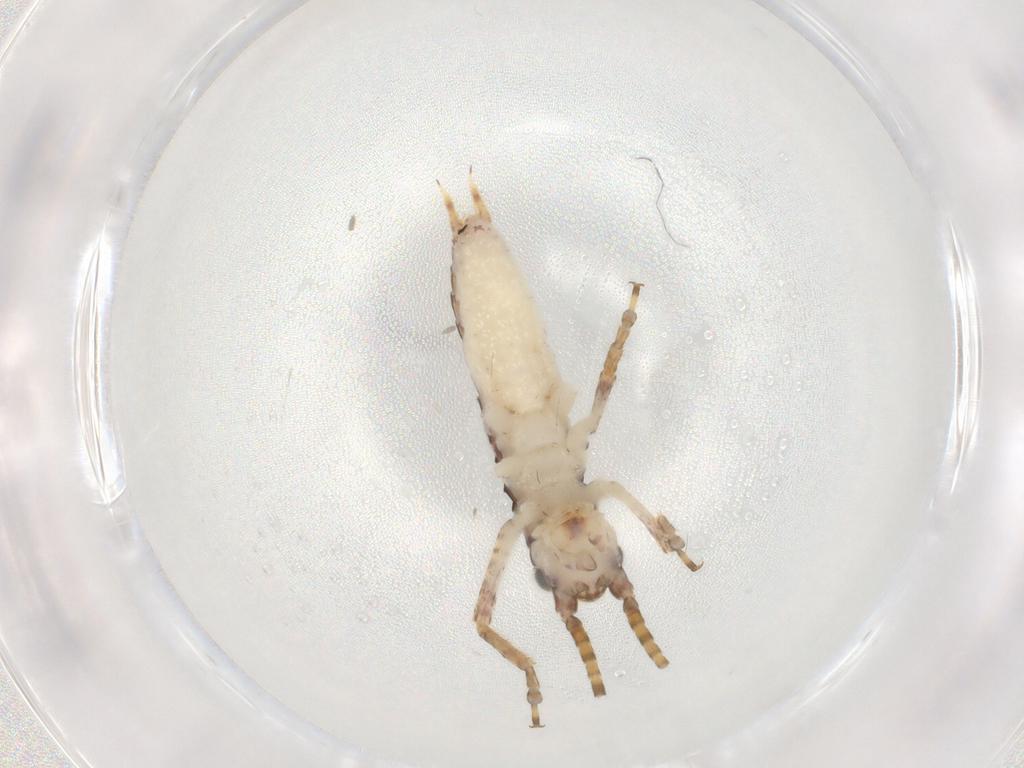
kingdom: Animalia
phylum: Arthropoda
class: Insecta
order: Orthoptera
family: Gryllidae
